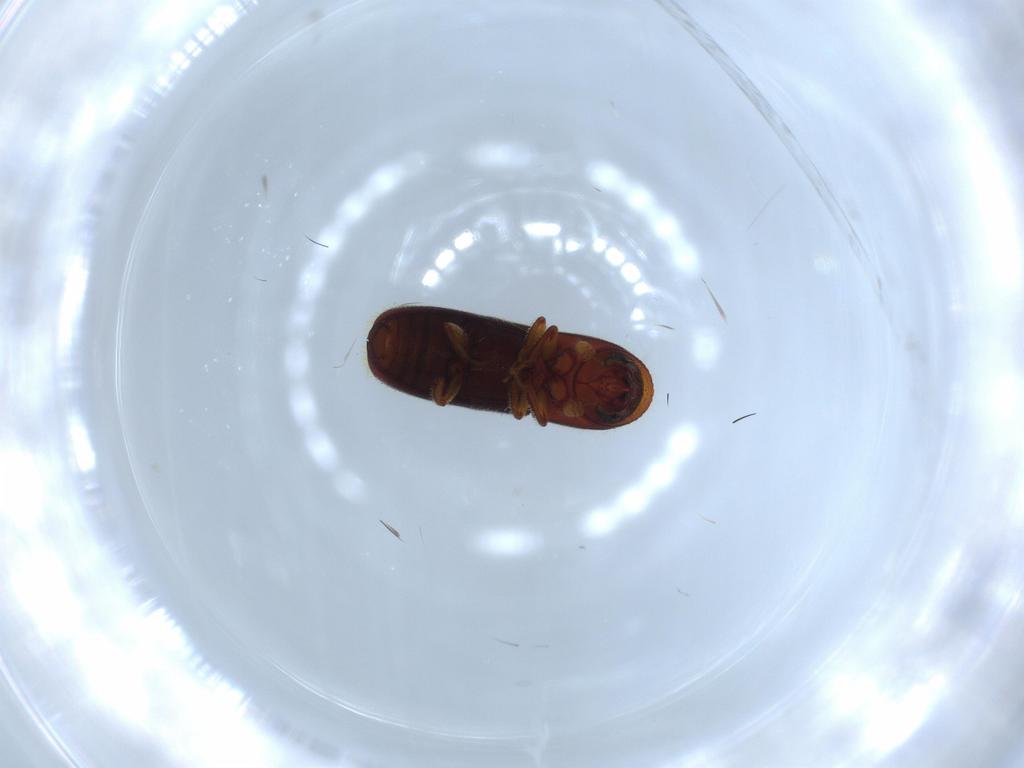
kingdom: Animalia
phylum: Arthropoda
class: Insecta
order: Coleoptera
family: Curculionidae
